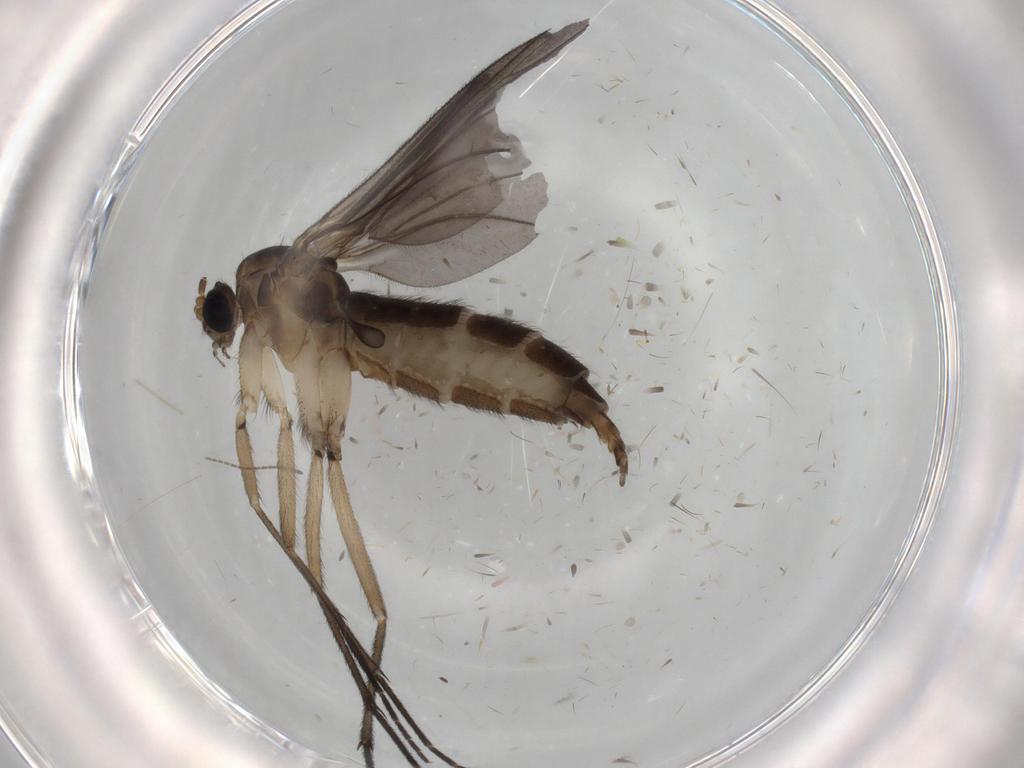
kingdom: Animalia
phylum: Arthropoda
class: Insecta
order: Diptera
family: Sciaridae
